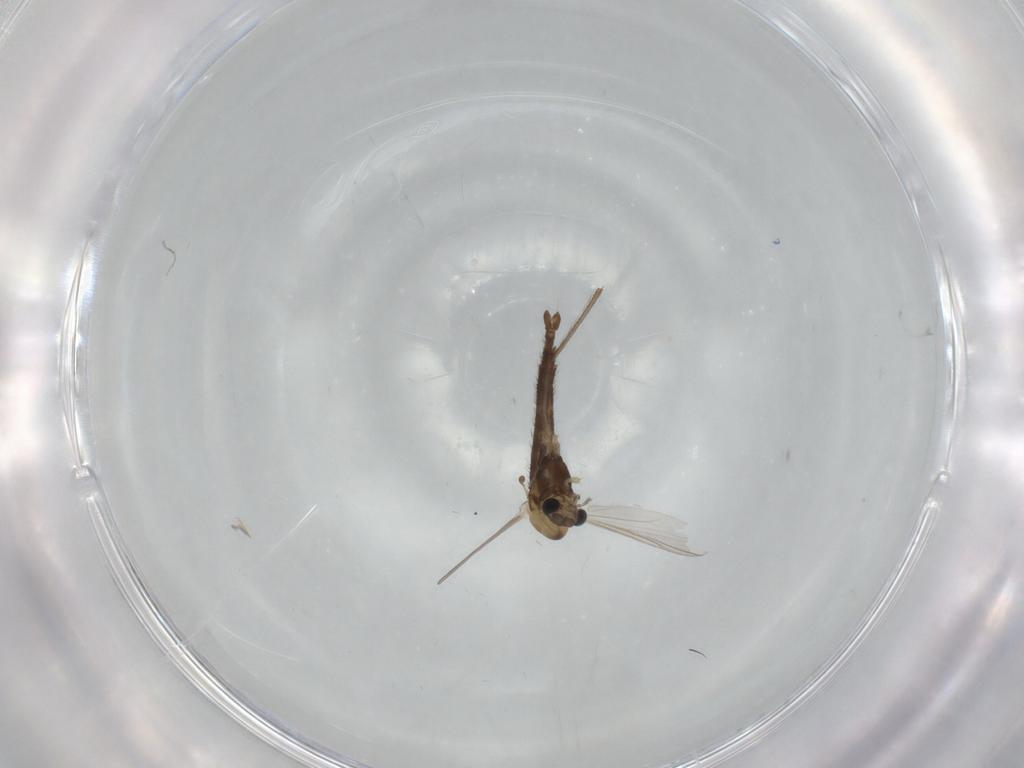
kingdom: Animalia
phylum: Arthropoda
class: Insecta
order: Diptera
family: Chironomidae
